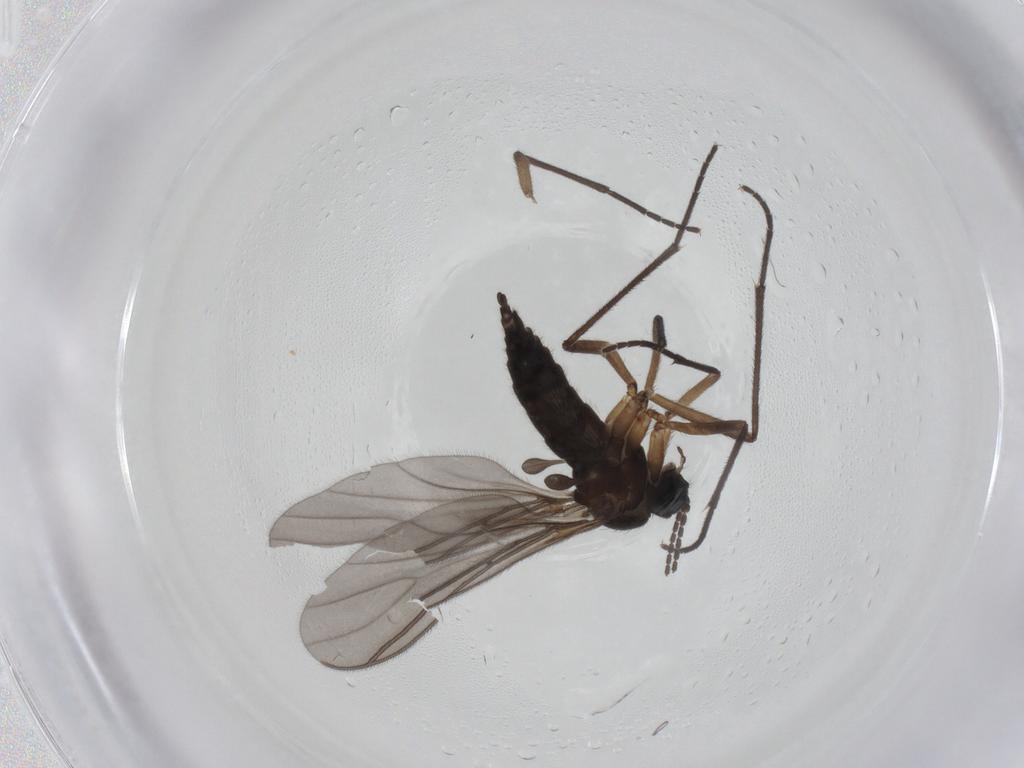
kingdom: Animalia
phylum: Arthropoda
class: Insecta
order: Diptera
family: Sciaridae
